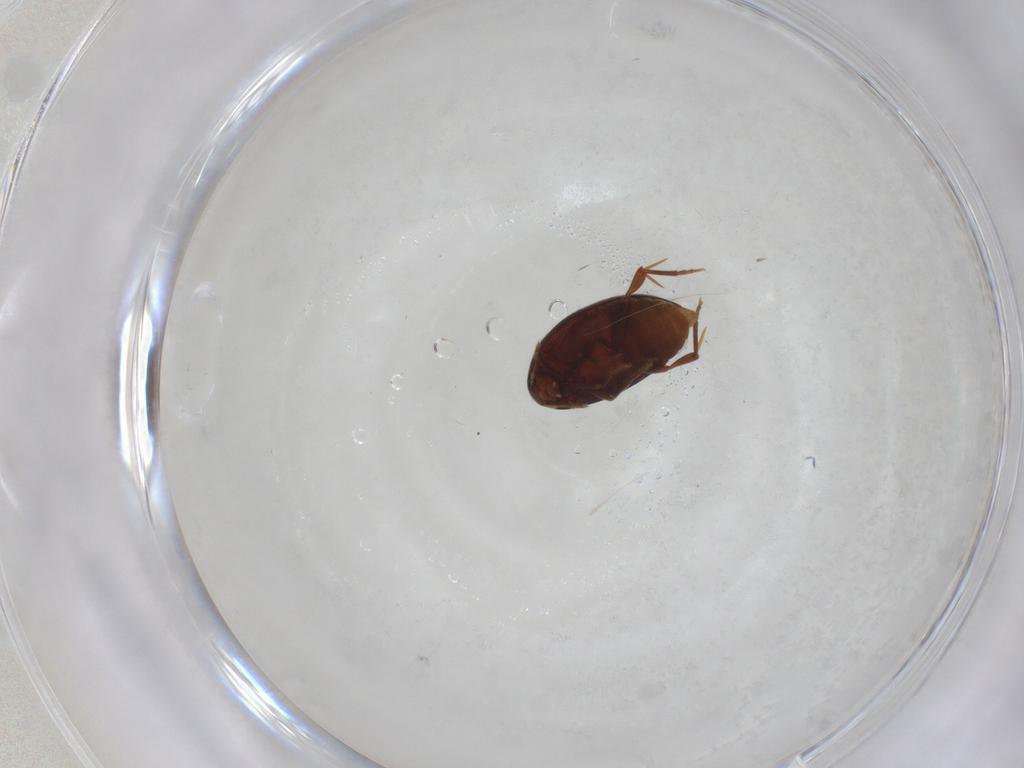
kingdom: Animalia
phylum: Arthropoda
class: Insecta
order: Coleoptera
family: Melandryidae
